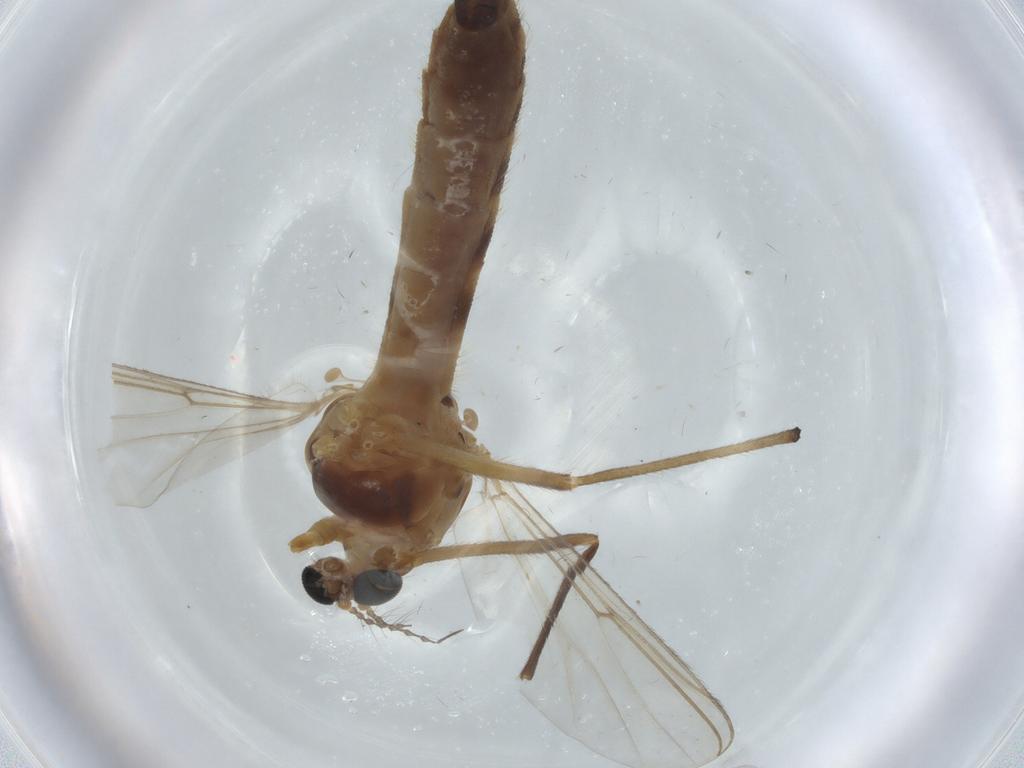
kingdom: Animalia
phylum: Arthropoda
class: Insecta
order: Diptera
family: Chironomidae
